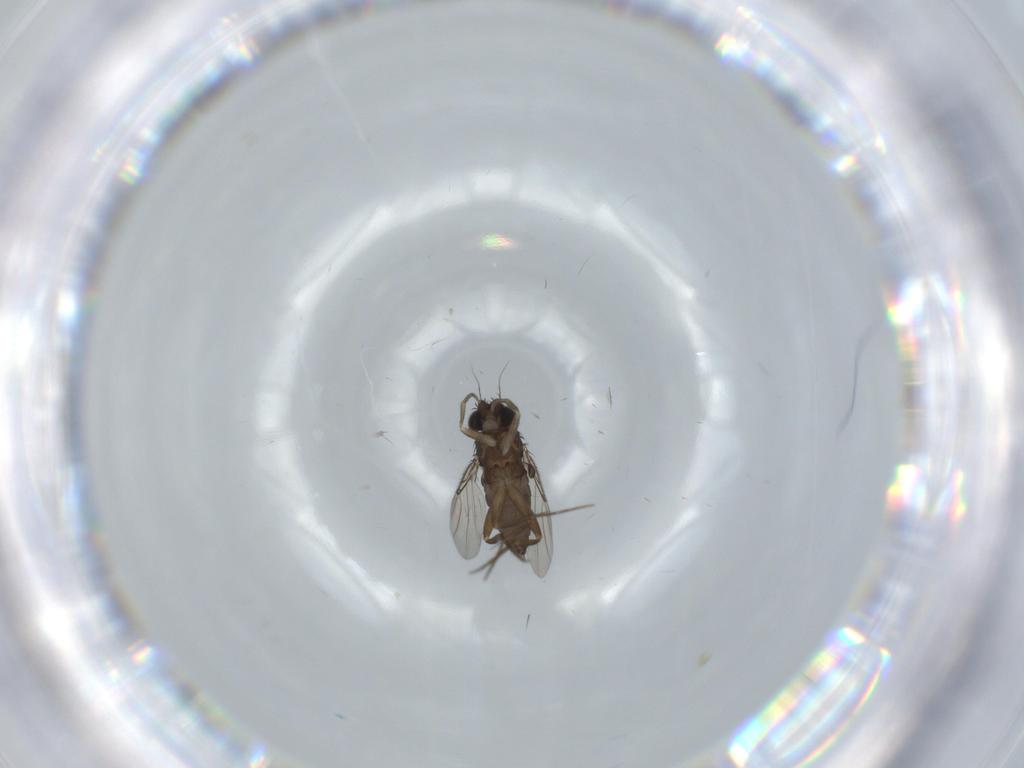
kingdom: Animalia
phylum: Arthropoda
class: Insecta
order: Diptera
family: Phoridae
